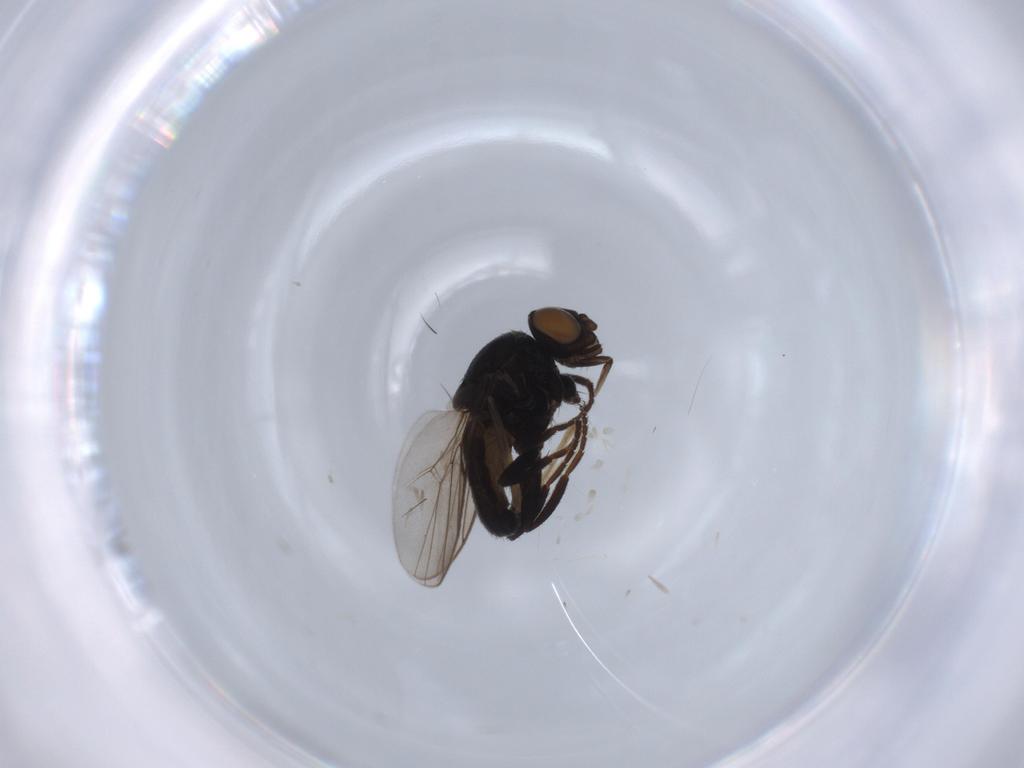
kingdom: Animalia
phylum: Arthropoda
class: Insecta
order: Diptera
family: Chloropidae
